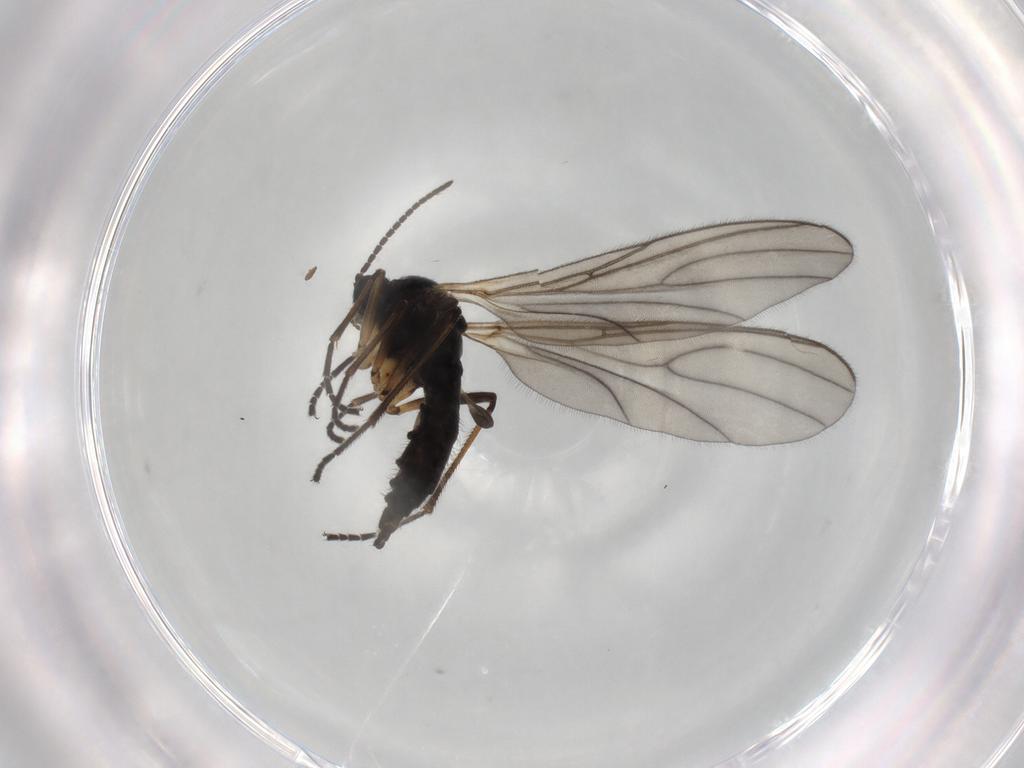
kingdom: Animalia
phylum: Arthropoda
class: Insecta
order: Diptera
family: Sciaridae
